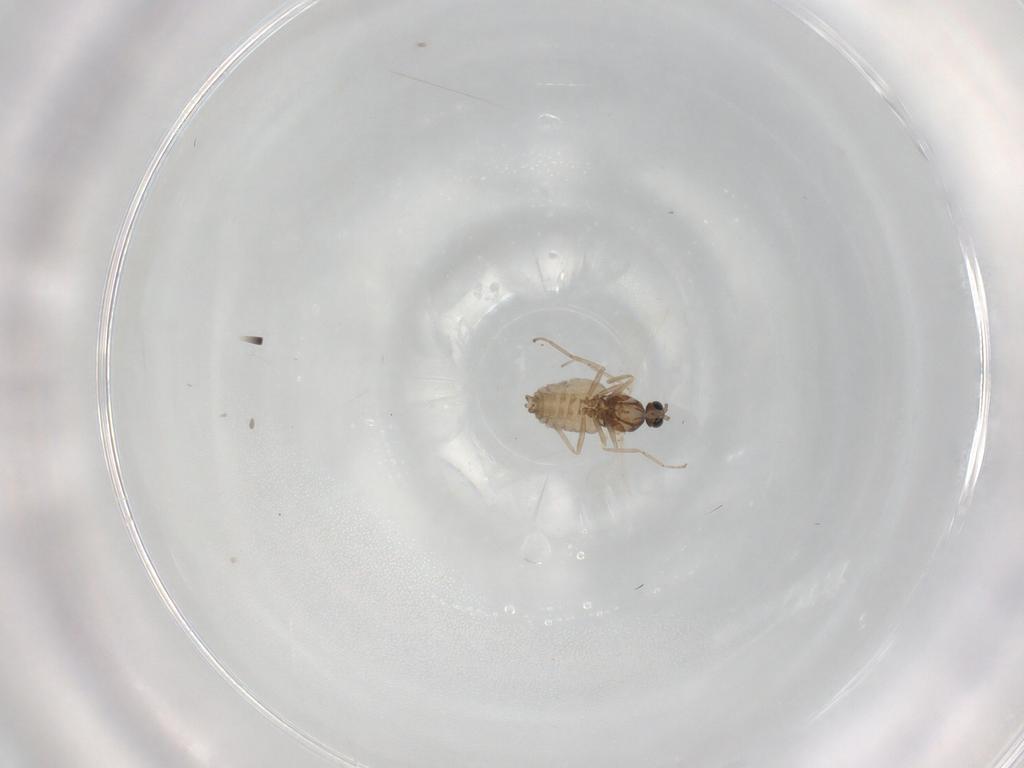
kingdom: Animalia
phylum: Arthropoda
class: Insecta
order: Diptera
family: Cecidomyiidae
